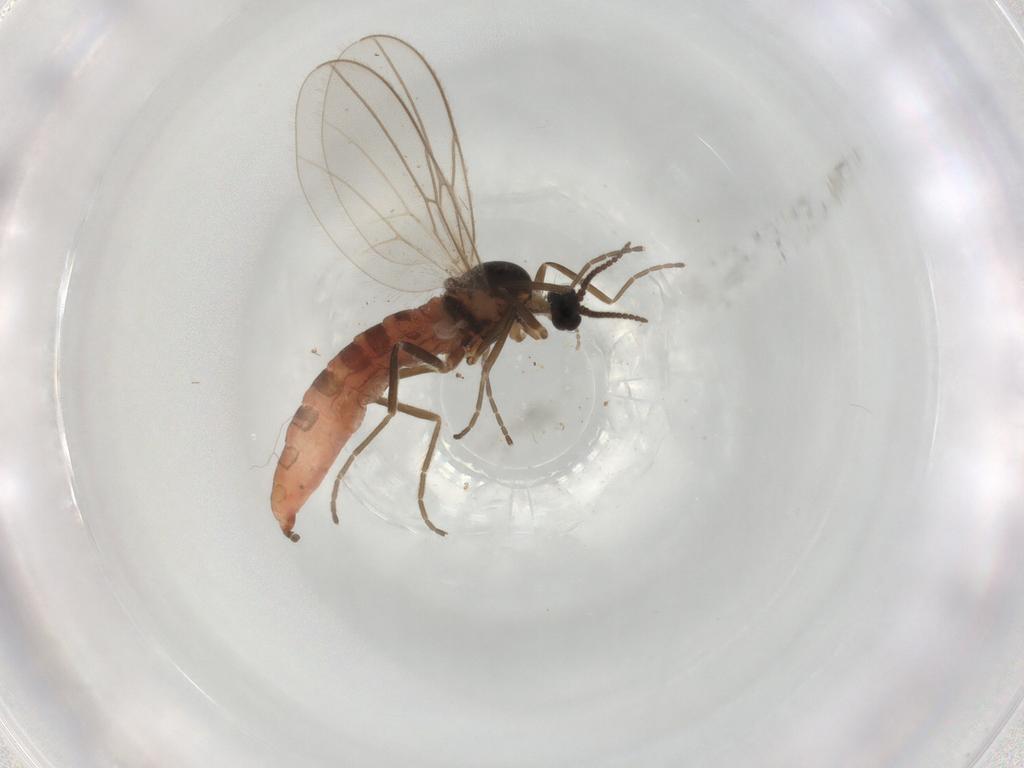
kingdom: Animalia
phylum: Arthropoda
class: Insecta
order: Diptera
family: Cecidomyiidae
